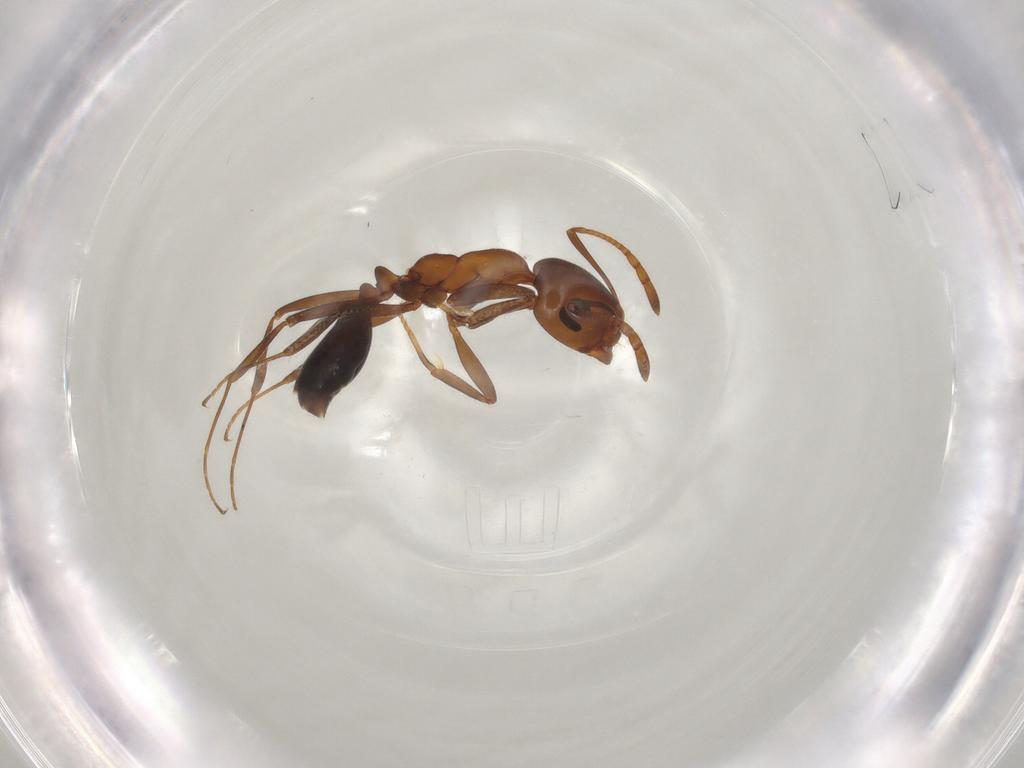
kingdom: Animalia
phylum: Arthropoda
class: Insecta
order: Hymenoptera
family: Formicidae
